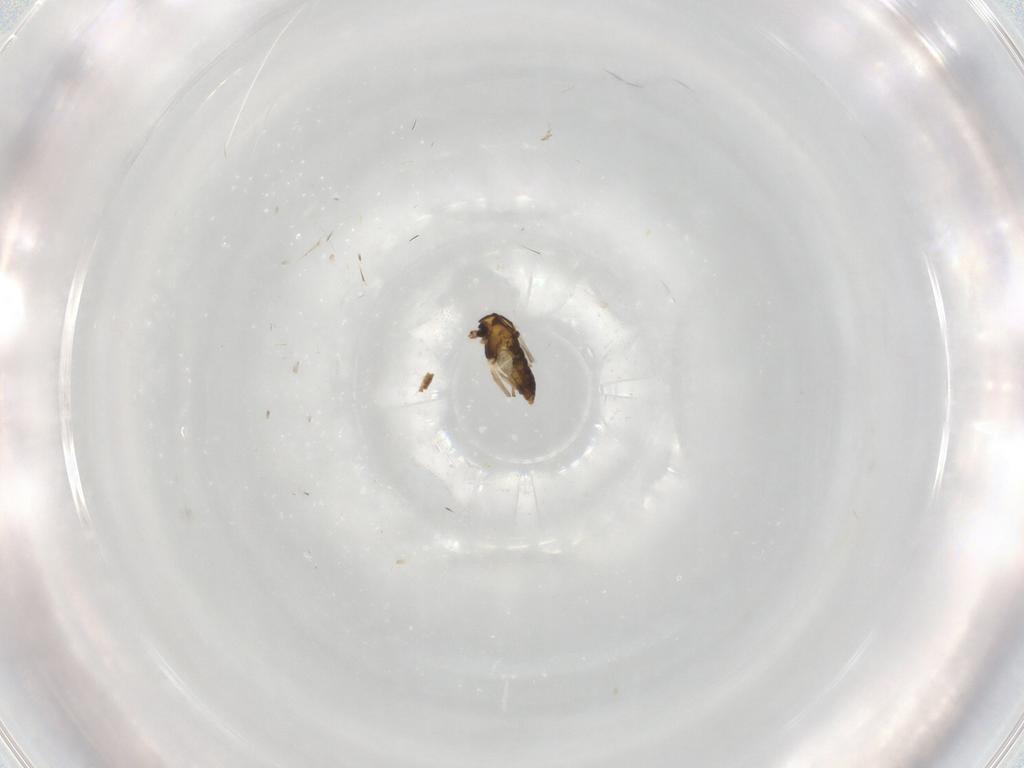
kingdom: Animalia
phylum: Arthropoda
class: Insecta
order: Diptera
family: Chironomidae
